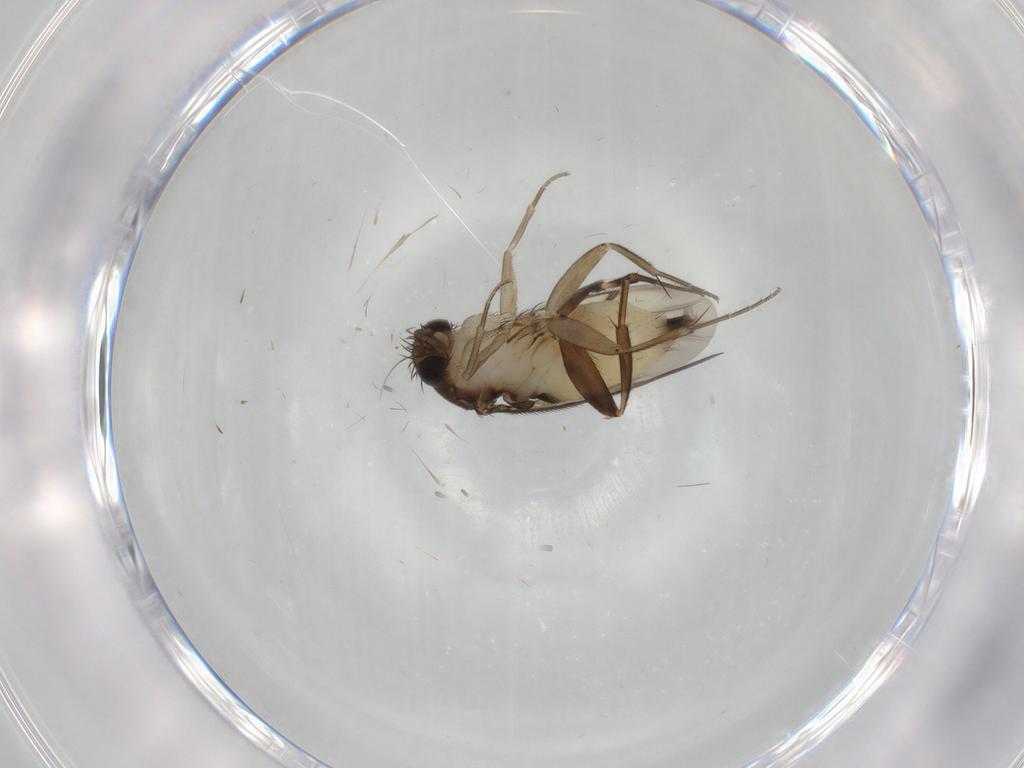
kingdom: Animalia
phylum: Arthropoda
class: Insecta
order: Diptera
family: Phoridae
